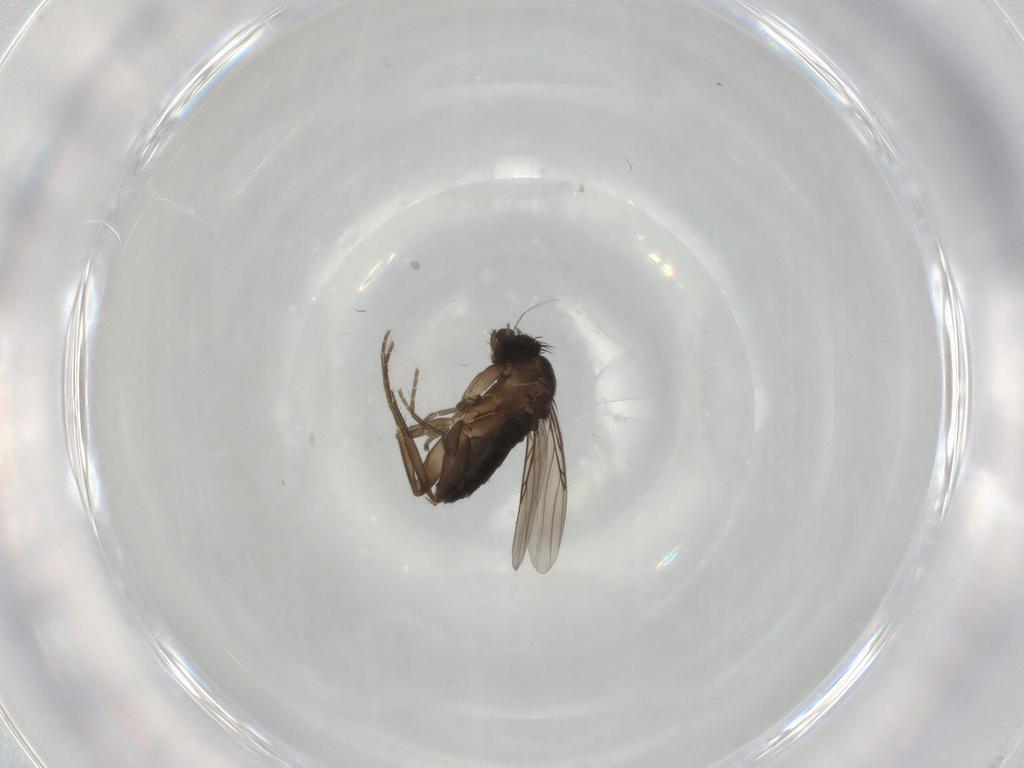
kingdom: Animalia
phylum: Arthropoda
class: Insecta
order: Diptera
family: Phoridae
